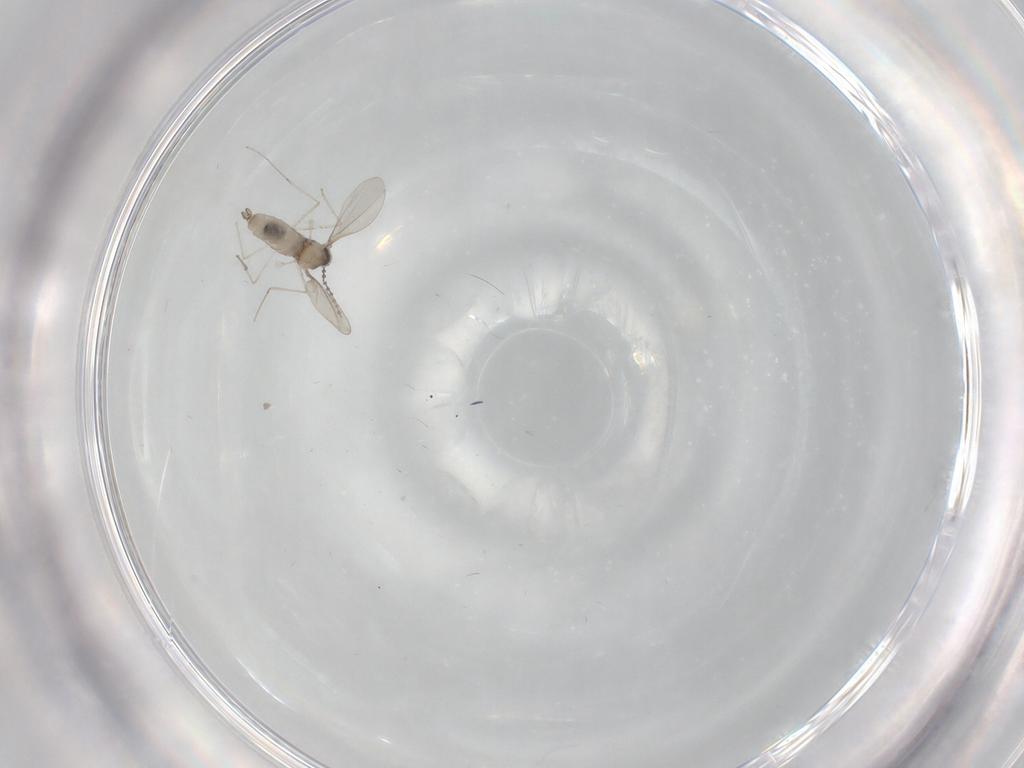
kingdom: Animalia
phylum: Arthropoda
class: Insecta
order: Diptera
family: Cecidomyiidae
